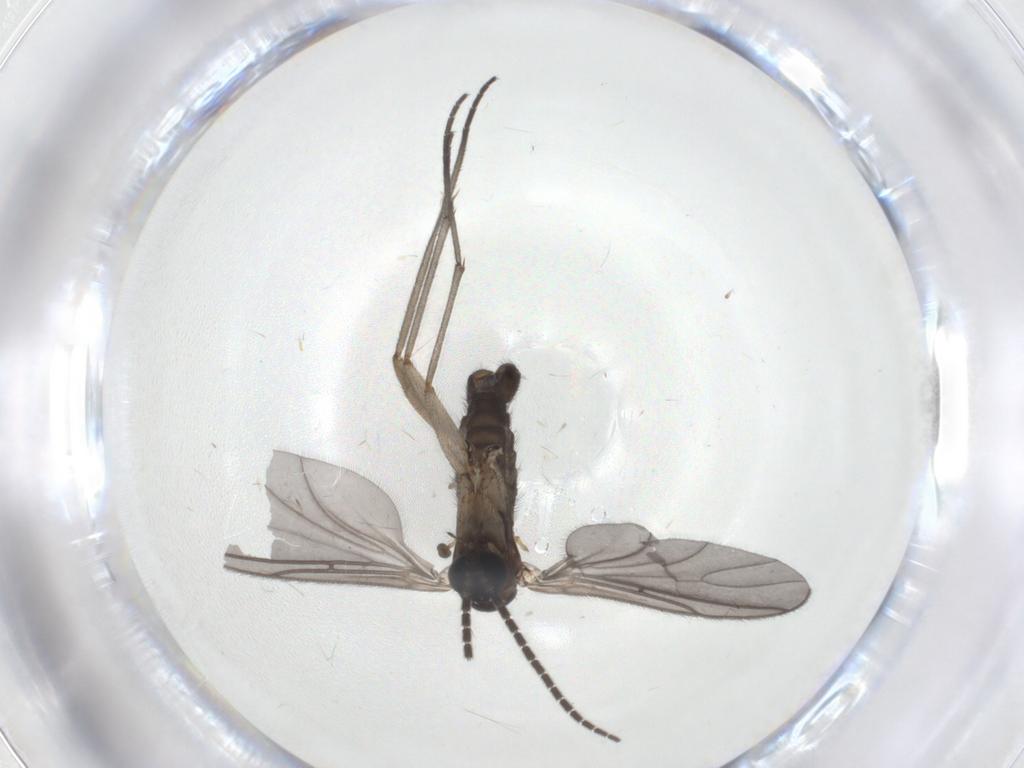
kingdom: Animalia
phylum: Arthropoda
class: Insecta
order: Diptera
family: Sciaridae
